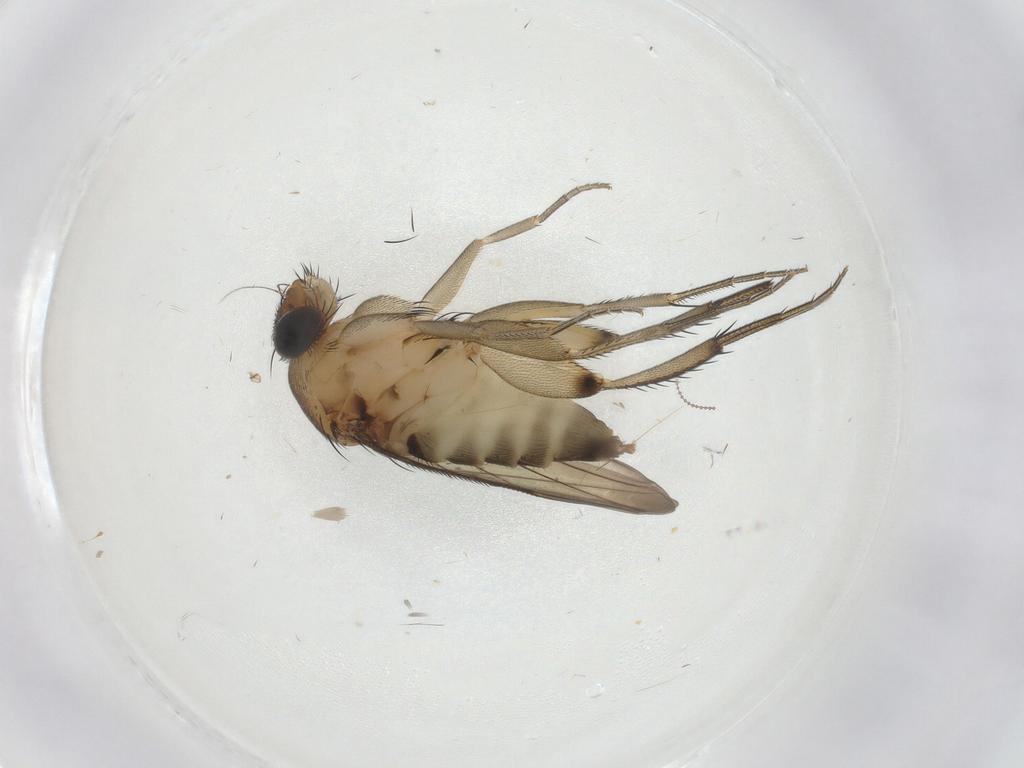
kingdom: Animalia
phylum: Arthropoda
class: Insecta
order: Diptera
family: Phoridae
